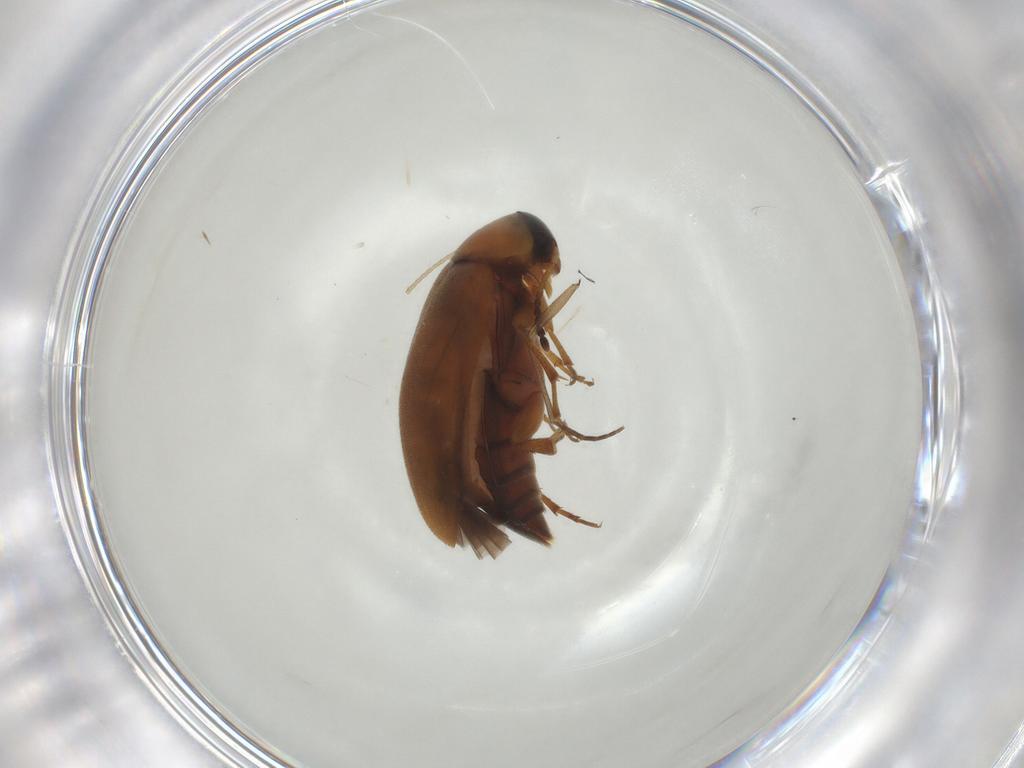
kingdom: Animalia
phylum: Arthropoda
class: Insecta
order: Coleoptera
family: Scraptiidae
